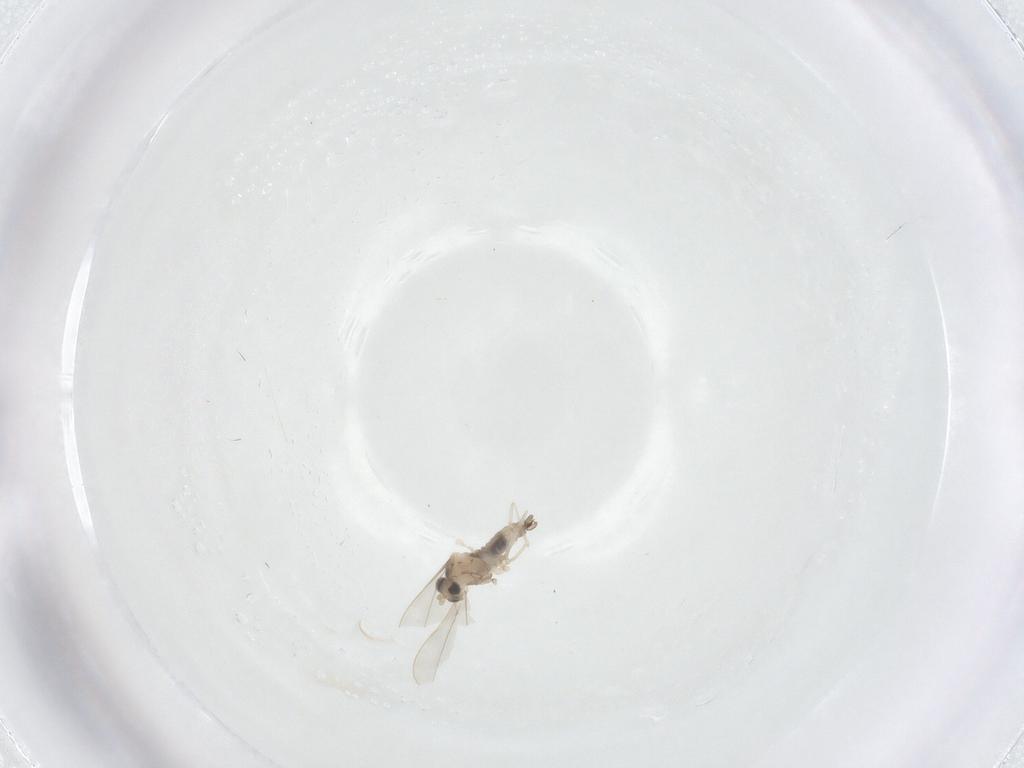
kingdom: Animalia
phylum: Arthropoda
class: Insecta
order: Diptera
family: Cecidomyiidae
